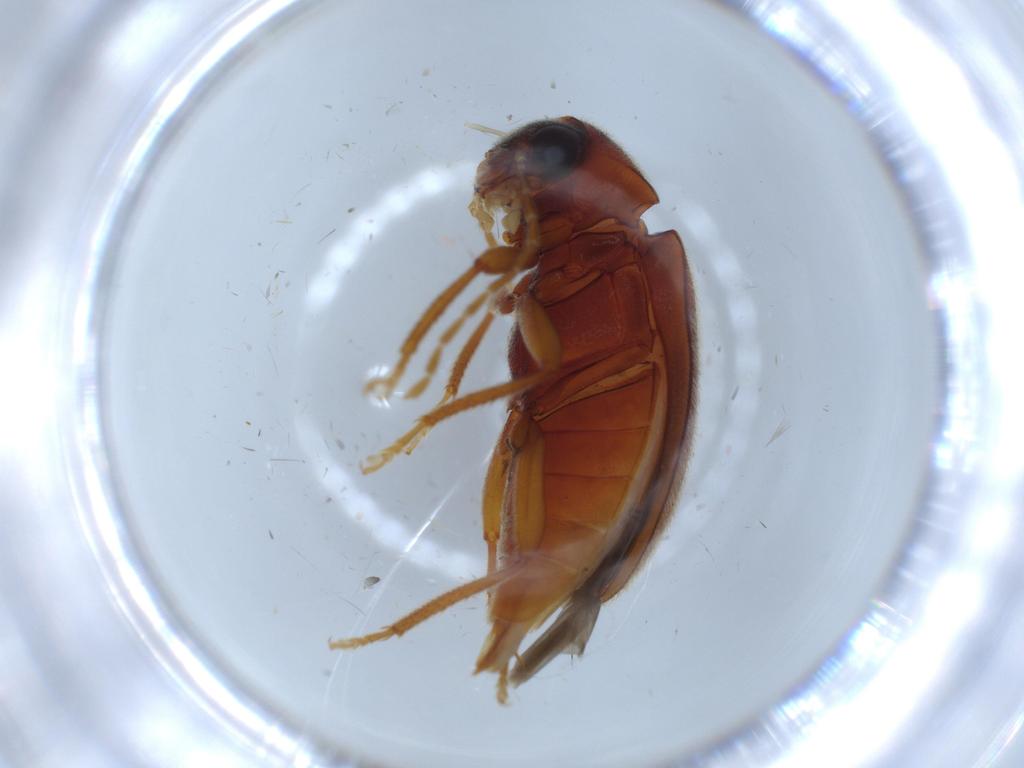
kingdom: Animalia
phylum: Arthropoda
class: Insecta
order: Coleoptera
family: Ptilodactylidae
